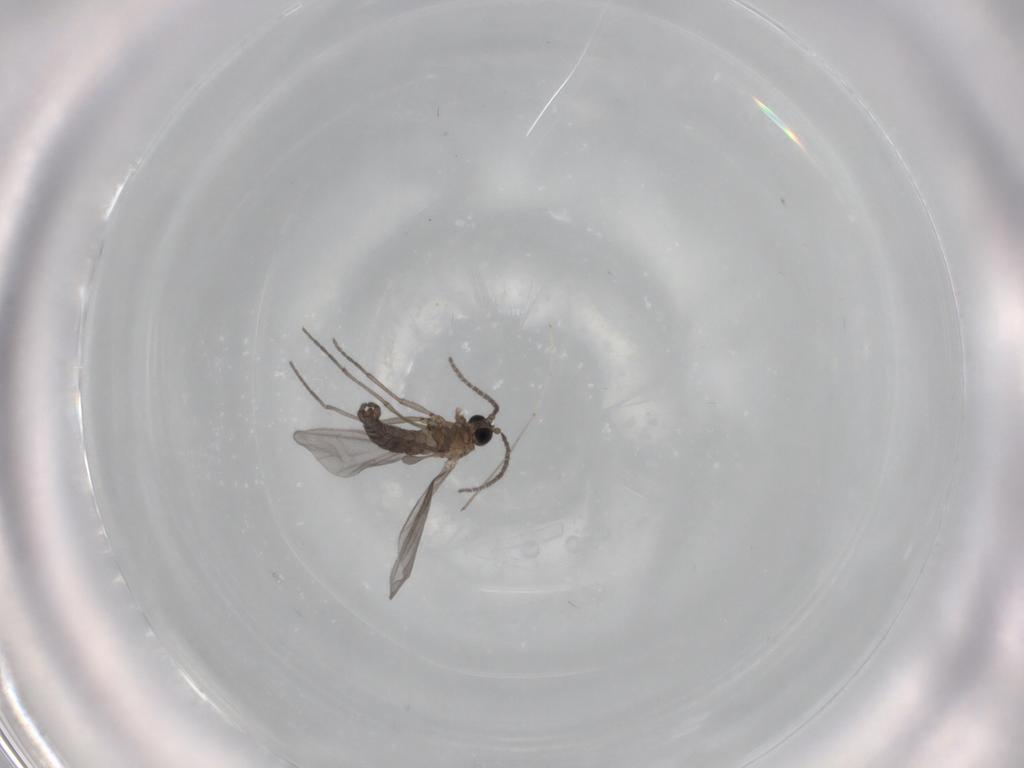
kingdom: Animalia
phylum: Arthropoda
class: Insecta
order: Diptera
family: Sciaridae
